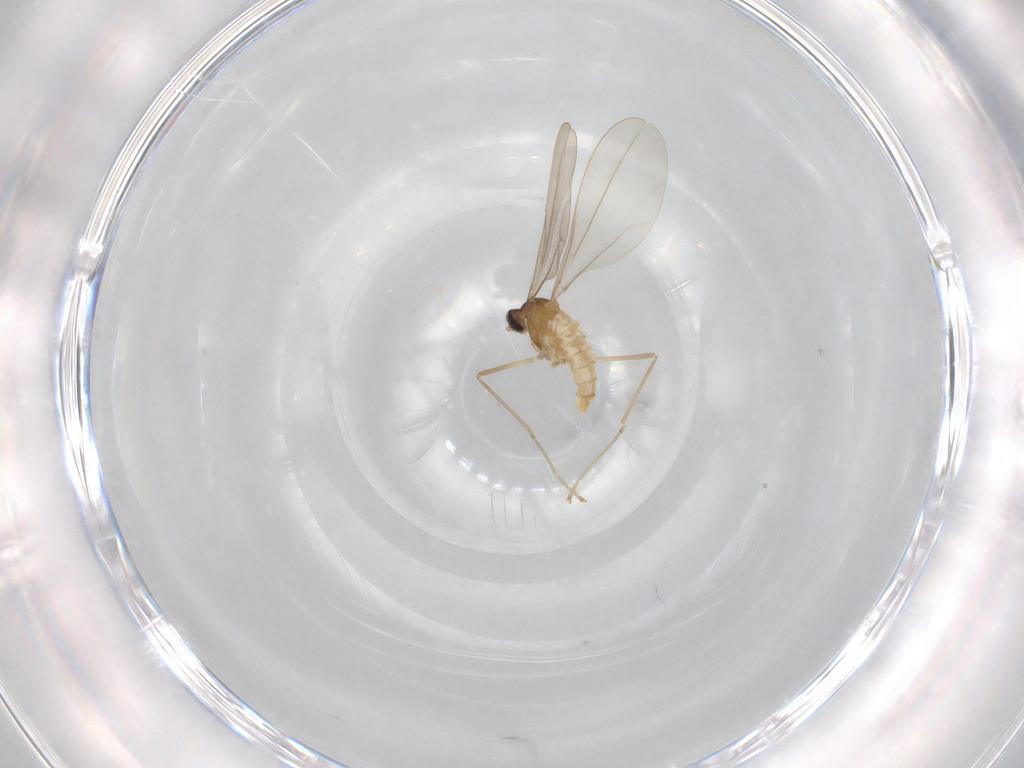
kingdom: Animalia
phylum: Arthropoda
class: Insecta
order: Diptera
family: Cecidomyiidae
